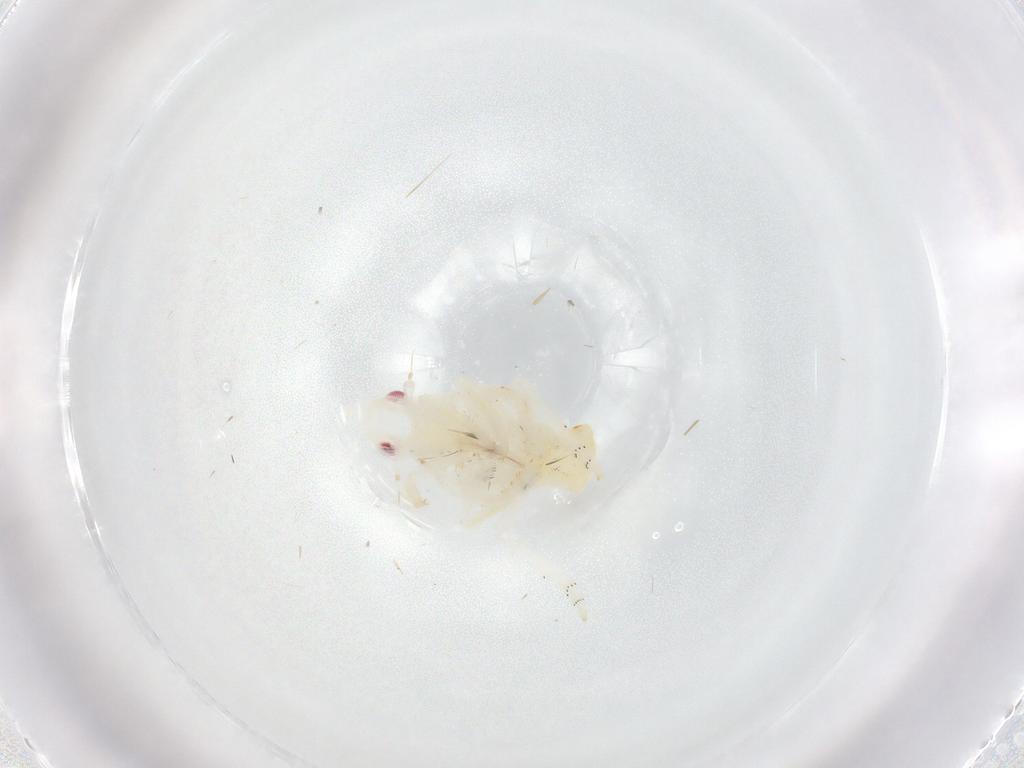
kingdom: Animalia
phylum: Arthropoda
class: Insecta
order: Hemiptera
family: Fulgoroidea_incertae_sedis
